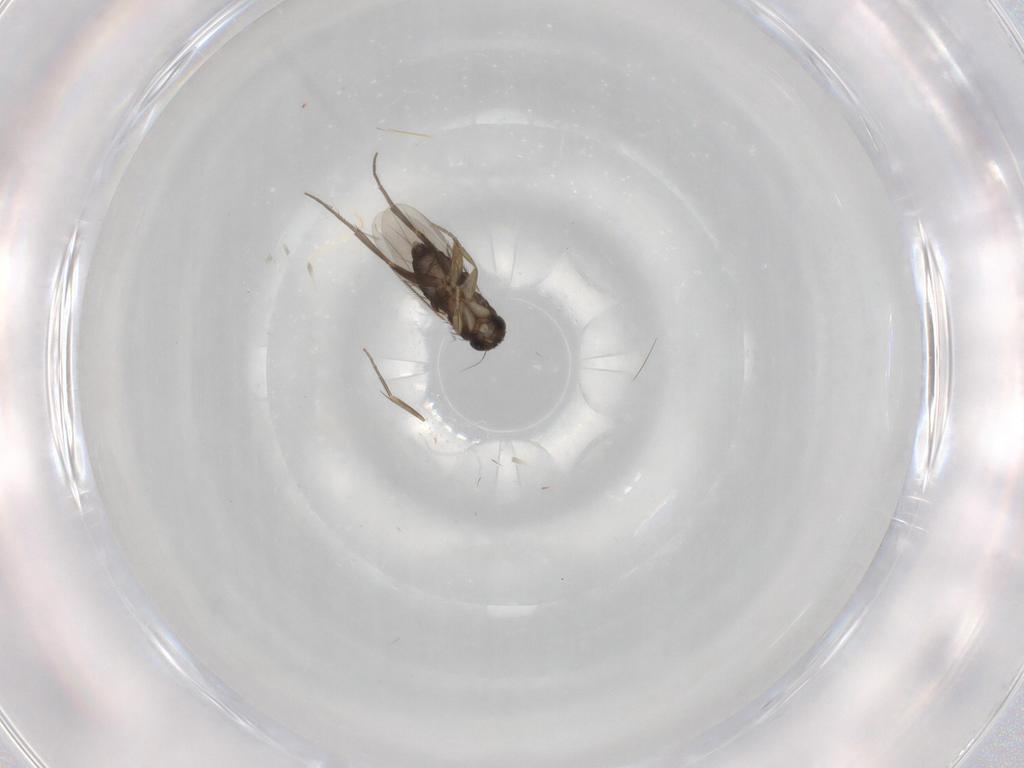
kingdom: Animalia
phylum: Arthropoda
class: Insecta
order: Diptera
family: Phoridae
